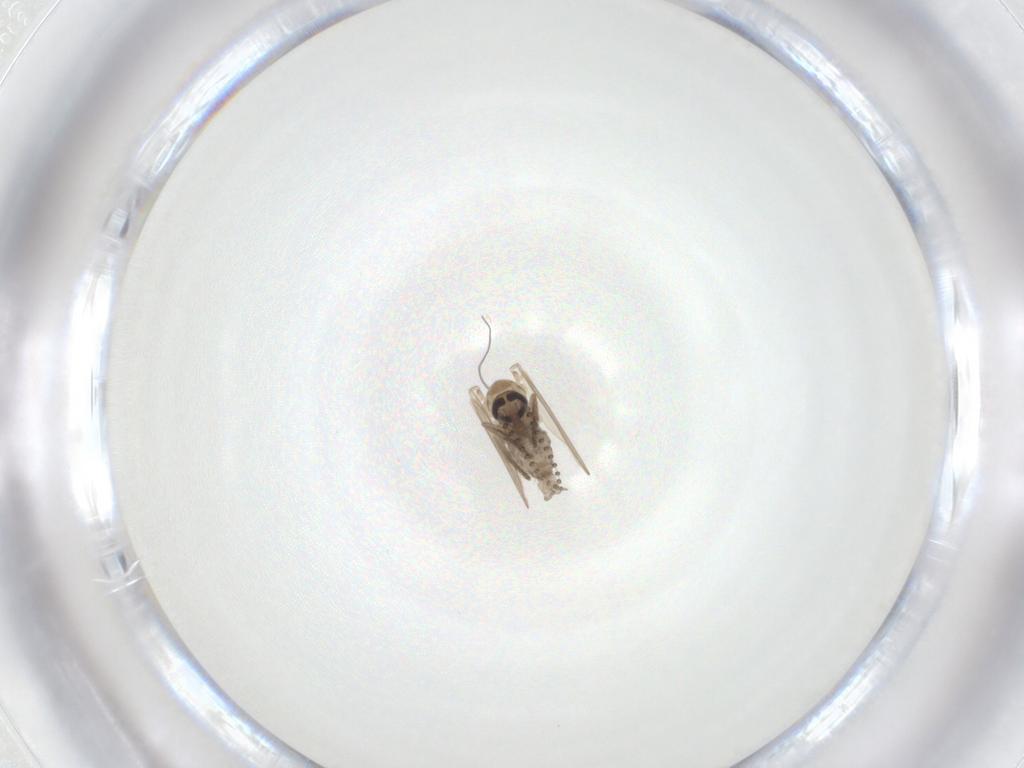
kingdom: Animalia
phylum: Arthropoda
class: Insecta
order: Diptera
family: Psychodidae
